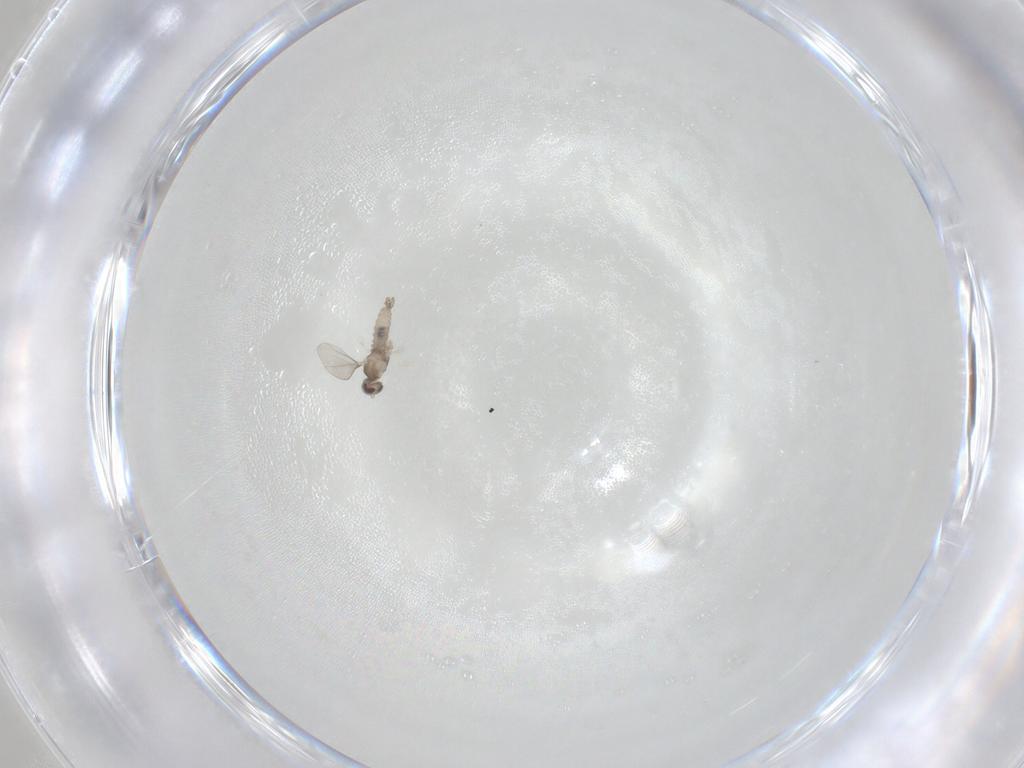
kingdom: Animalia
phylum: Arthropoda
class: Insecta
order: Diptera
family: Cecidomyiidae
